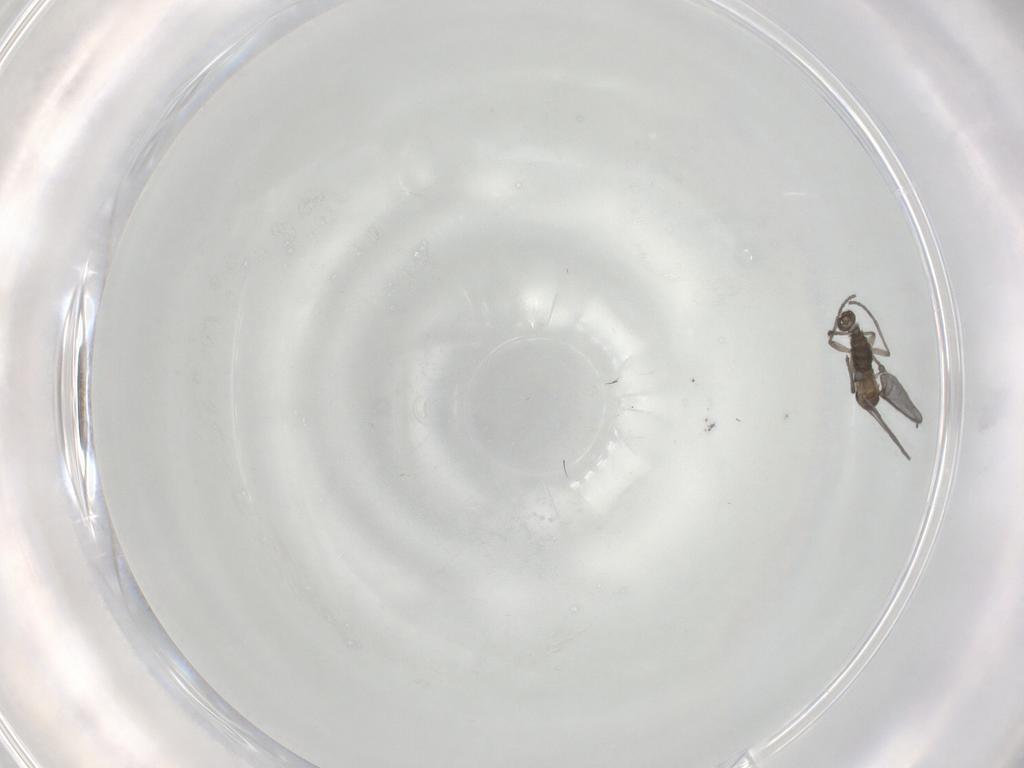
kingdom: Animalia
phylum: Arthropoda
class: Insecta
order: Diptera
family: Sciaridae
